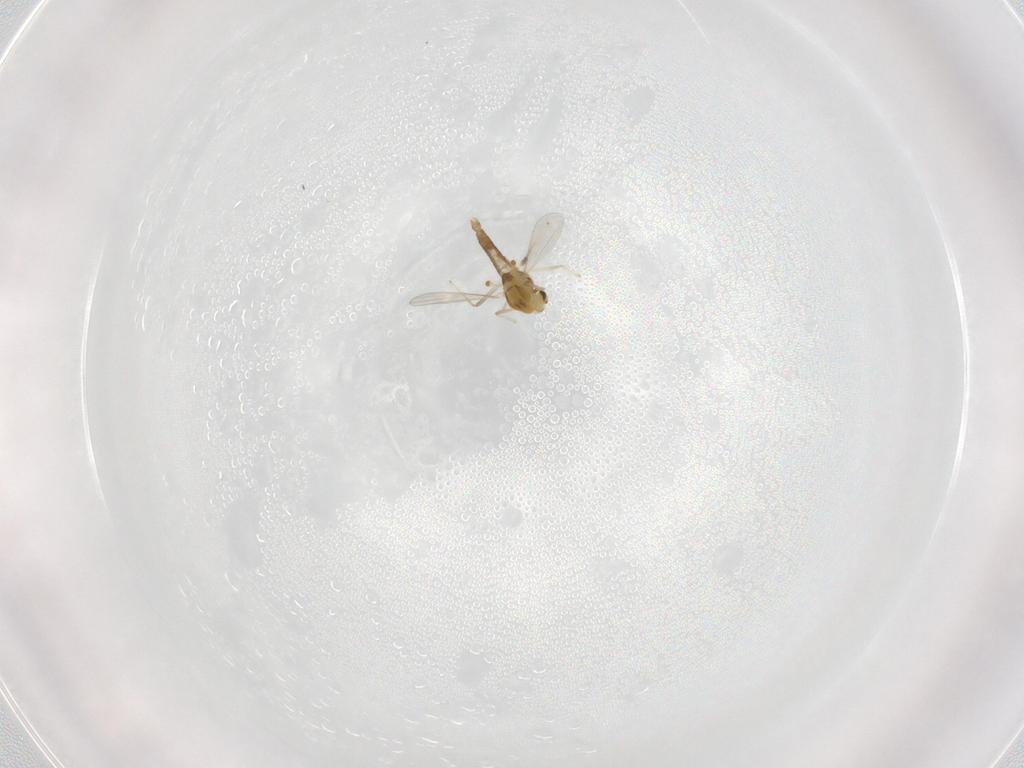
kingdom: Animalia
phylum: Arthropoda
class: Insecta
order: Diptera
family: Chironomidae
